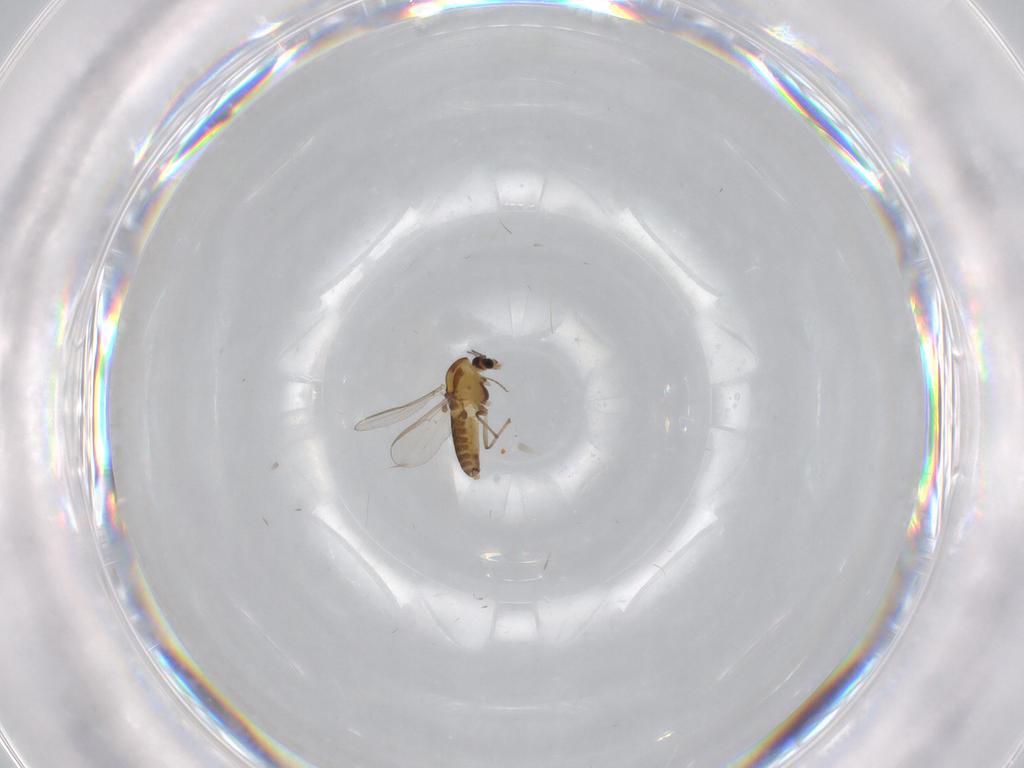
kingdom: Animalia
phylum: Arthropoda
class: Insecta
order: Diptera
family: Chironomidae
